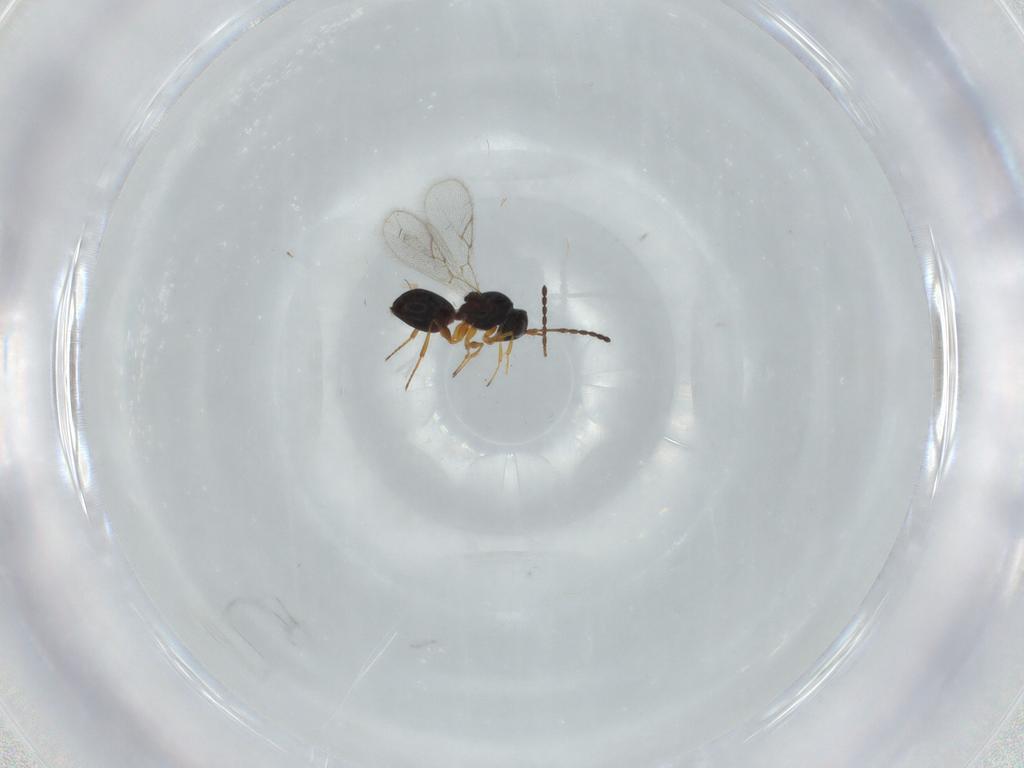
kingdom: Animalia
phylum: Arthropoda
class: Insecta
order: Hymenoptera
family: Figitidae
